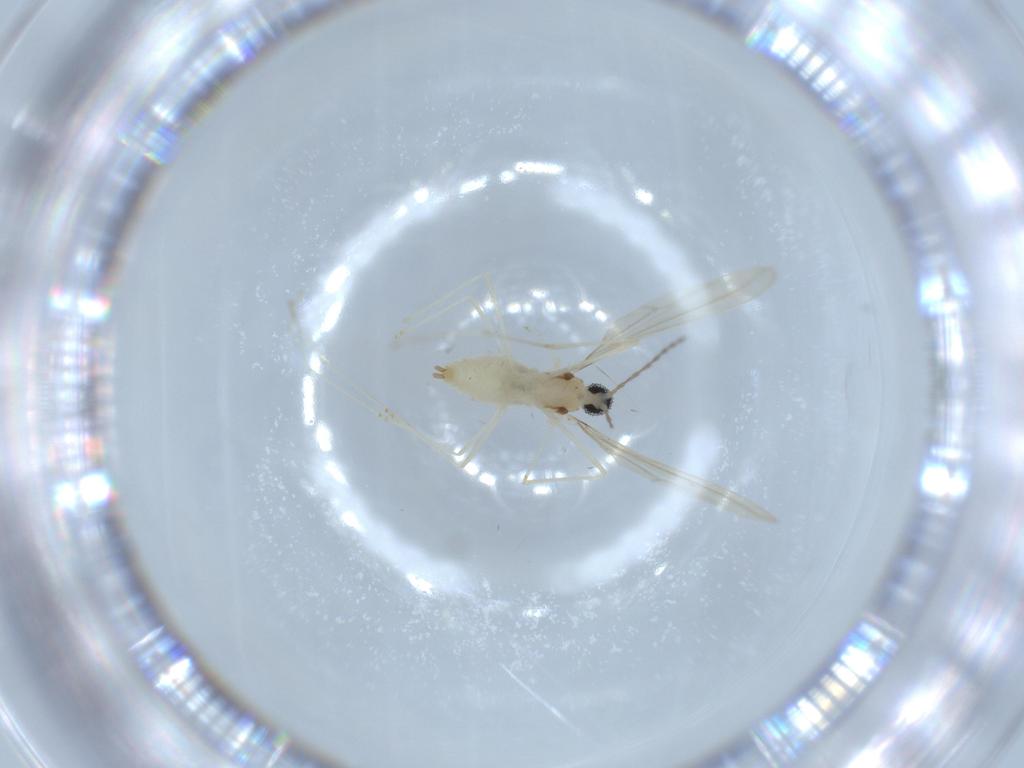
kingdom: Animalia
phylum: Arthropoda
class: Insecta
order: Diptera
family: Cecidomyiidae
